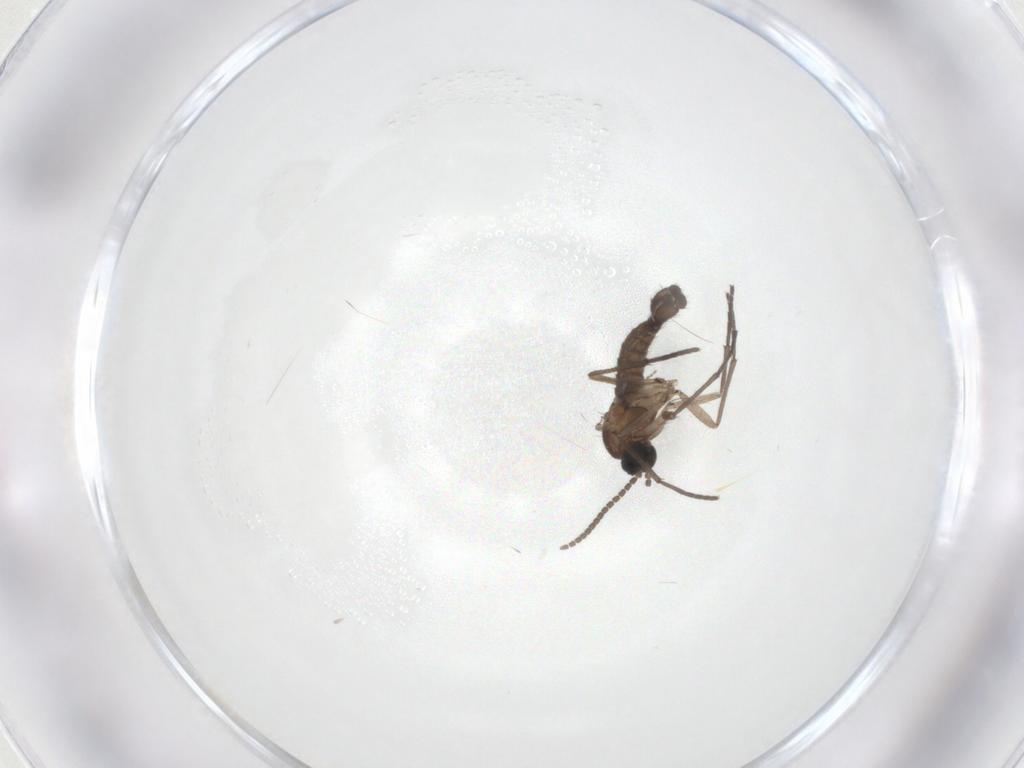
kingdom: Animalia
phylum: Arthropoda
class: Insecta
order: Diptera
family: Sciaridae
